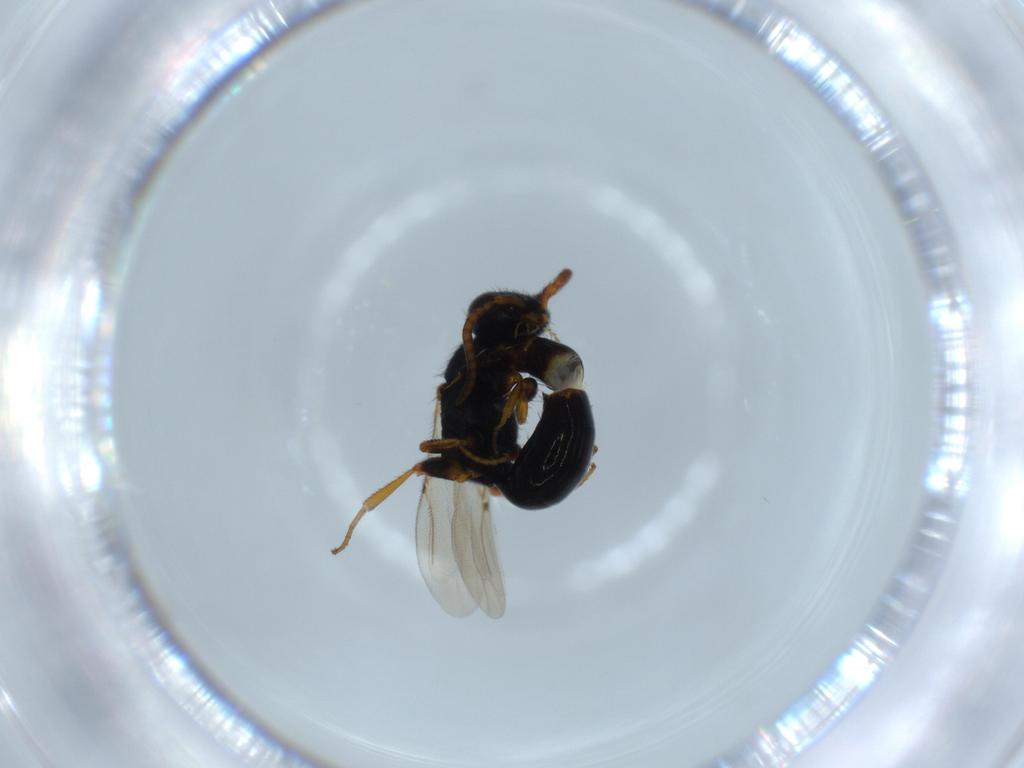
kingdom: Animalia
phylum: Arthropoda
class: Insecta
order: Hymenoptera
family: Bethylidae
